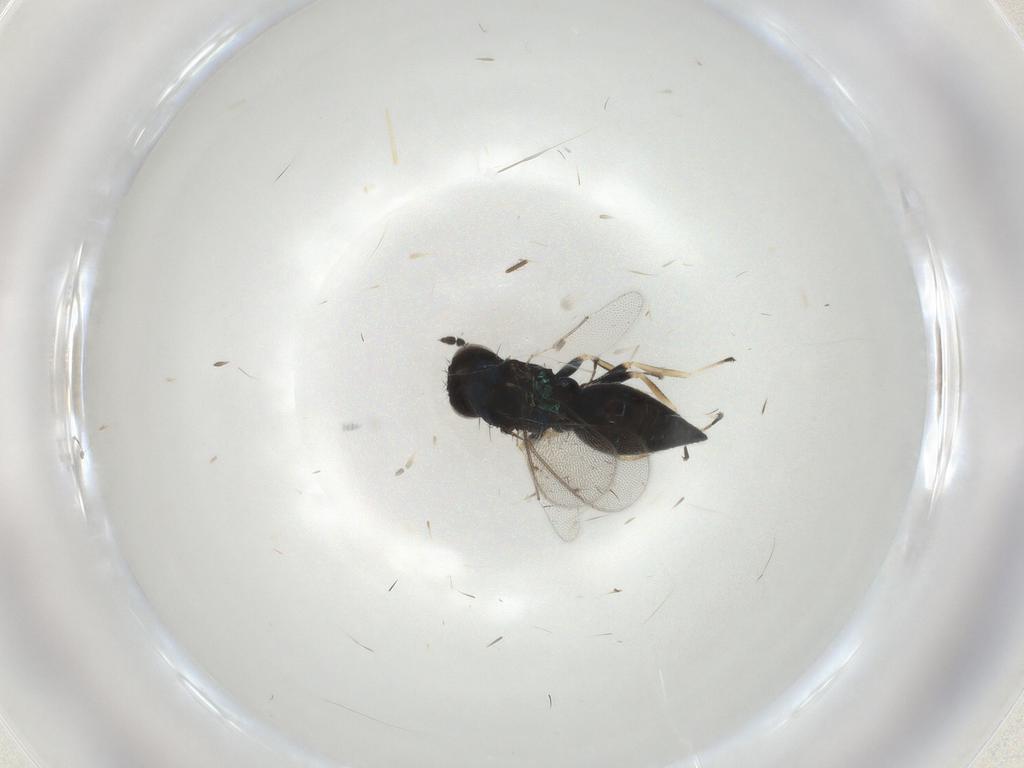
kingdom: Animalia
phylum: Arthropoda
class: Insecta
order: Hymenoptera
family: Eulophidae
